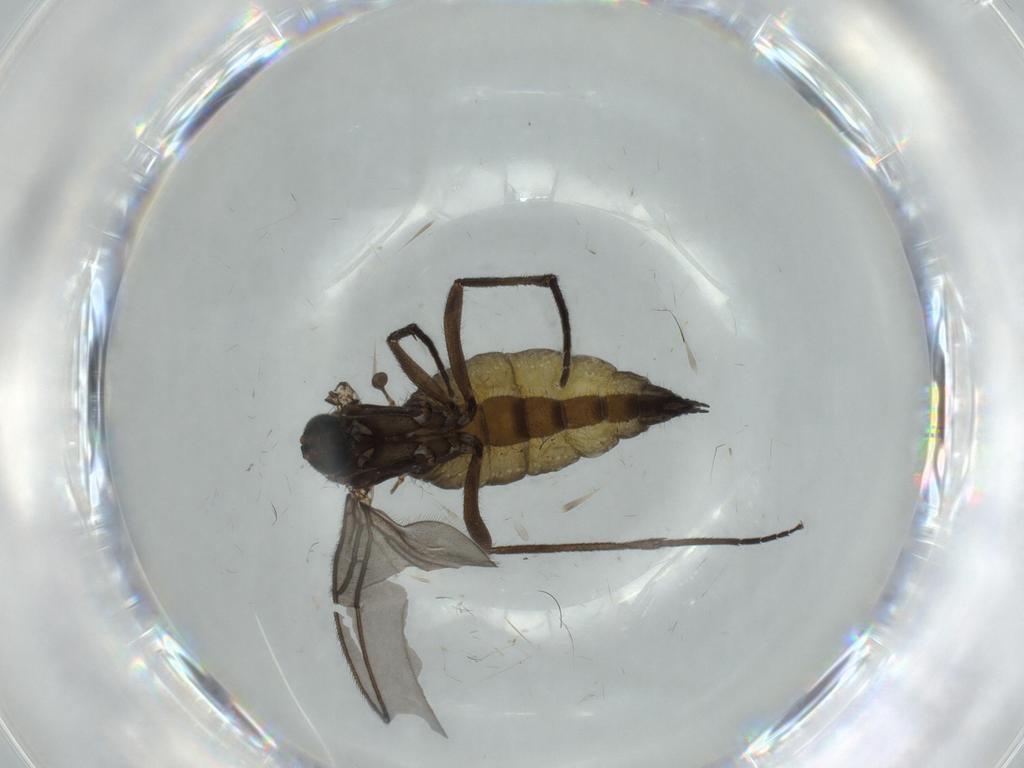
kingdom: Animalia
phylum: Arthropoda
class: Insecta
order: Diptera
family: Sciaridae
